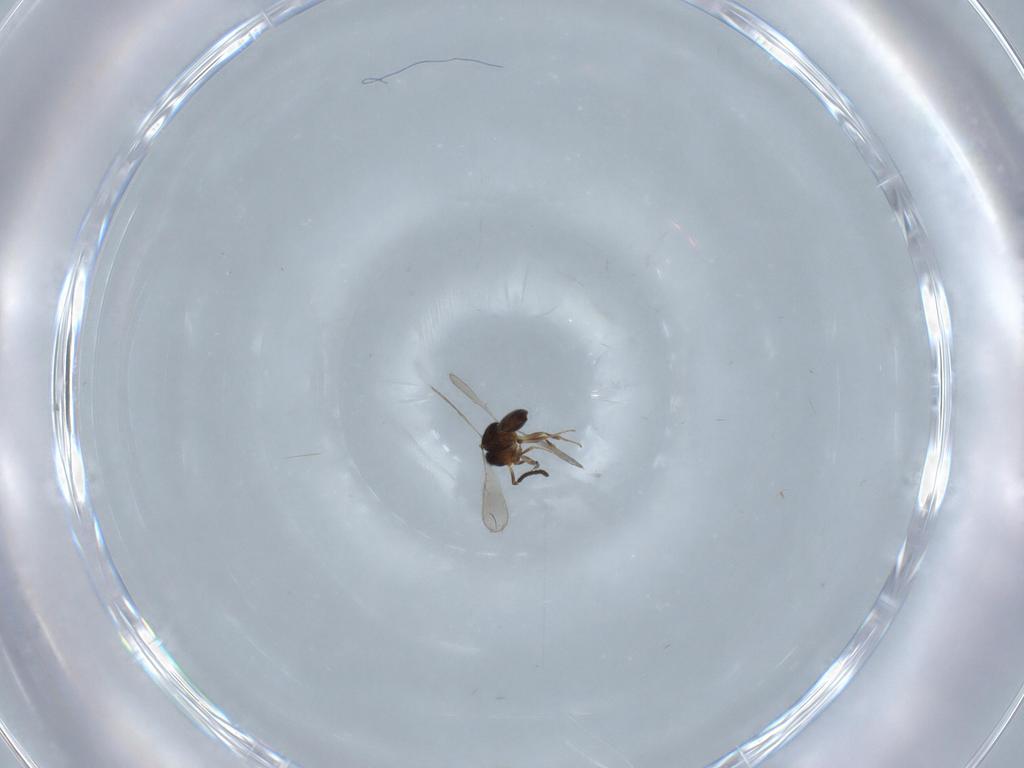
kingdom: Animalia
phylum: Arthropoda
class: Insecta
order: Hymenoptera
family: Scelionidae
